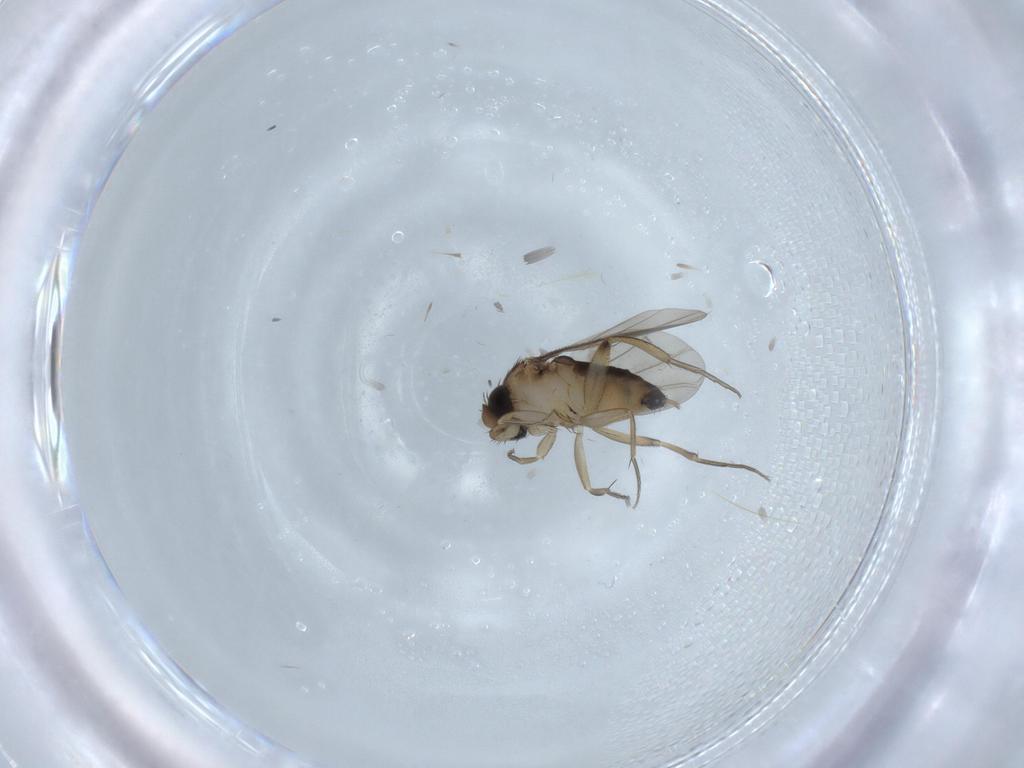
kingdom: Animalia
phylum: Arthropoda
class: Insecta
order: Diptera
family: Phoridae
